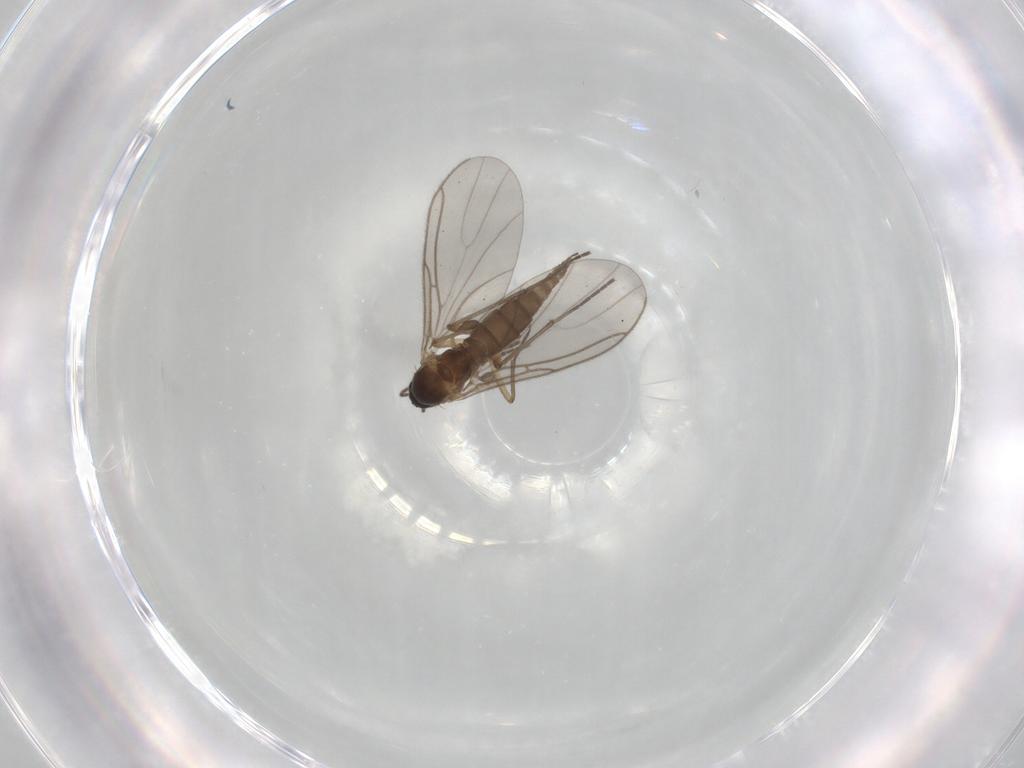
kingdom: Animalia
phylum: Arthropoda
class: Insecta
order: Diptera
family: Sciaridae
